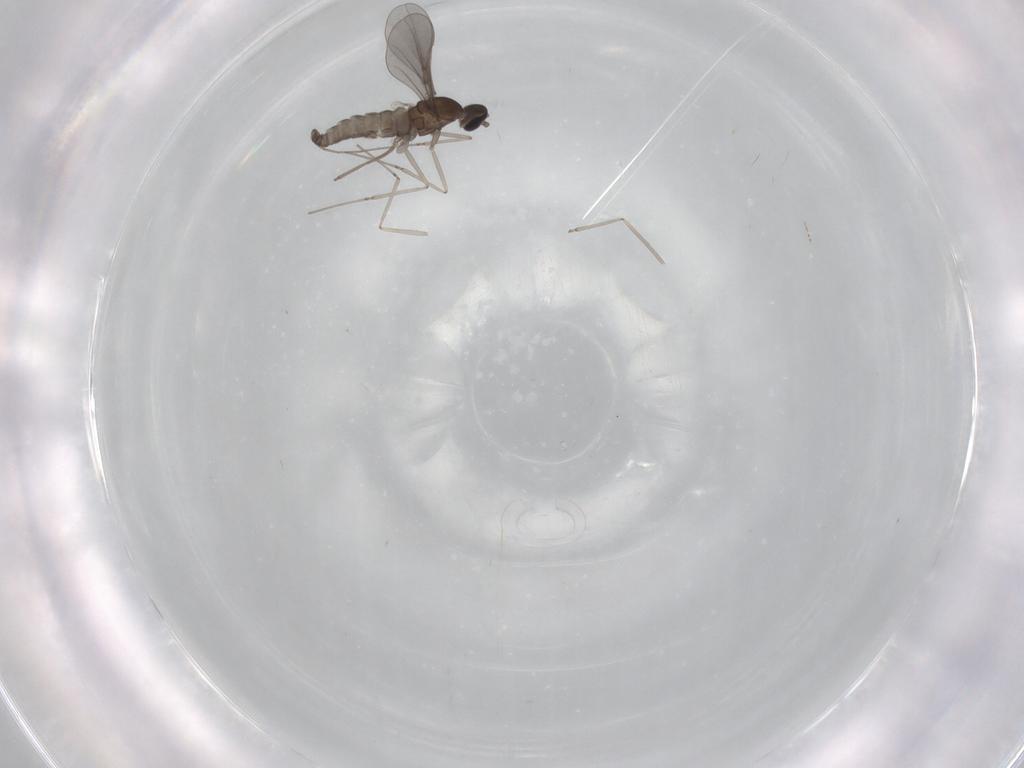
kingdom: Animalia
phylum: Arthropoda
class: Insecta
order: Diptera
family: Cecidomyiidae
